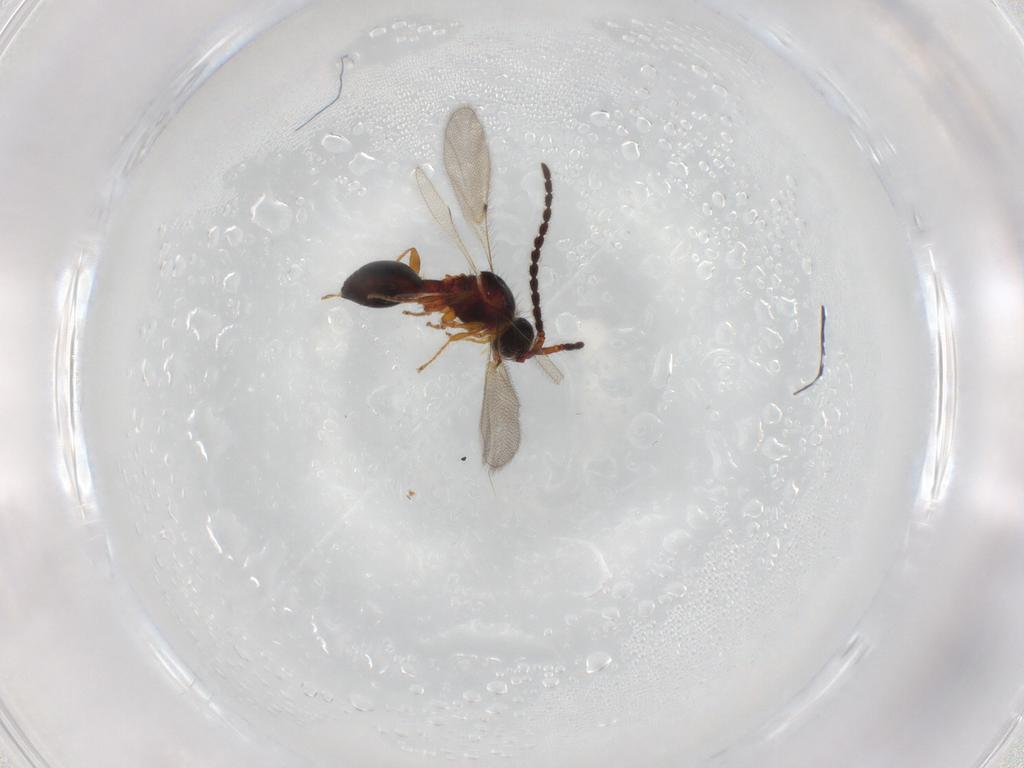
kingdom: Animalia
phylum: Arthropoda
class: Insecta
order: Hymenoptera
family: Diapriidae
